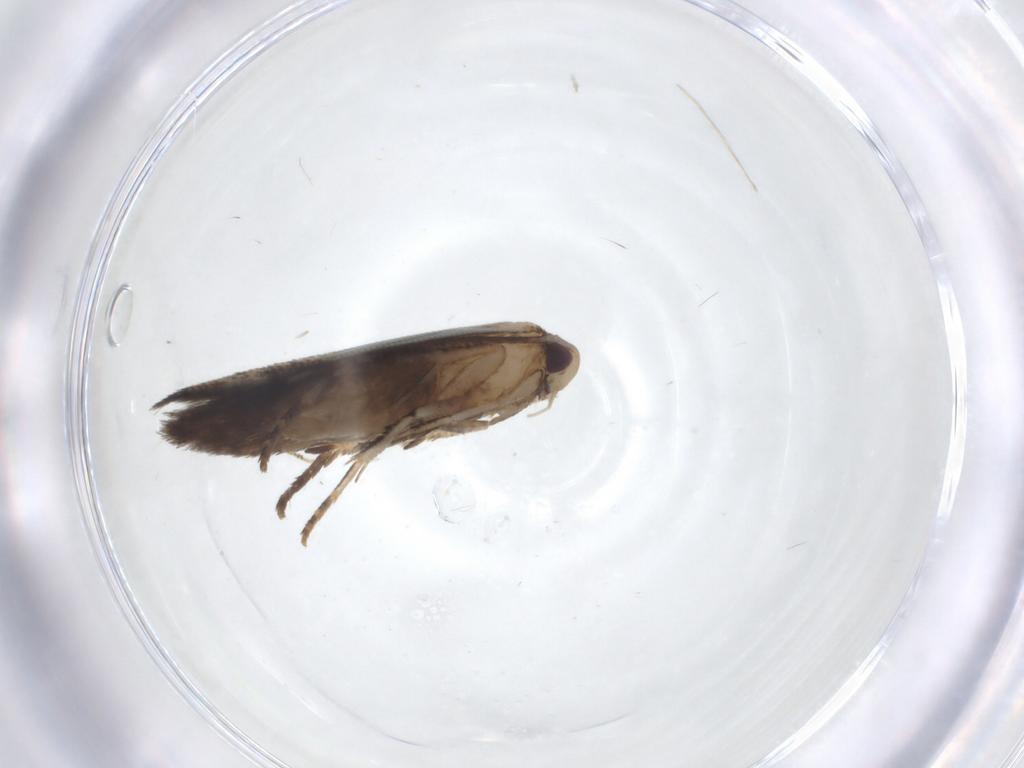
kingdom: Animalia
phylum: Arthropoda
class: Insecta
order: Lepidoptera
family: Cosmopterigidae
